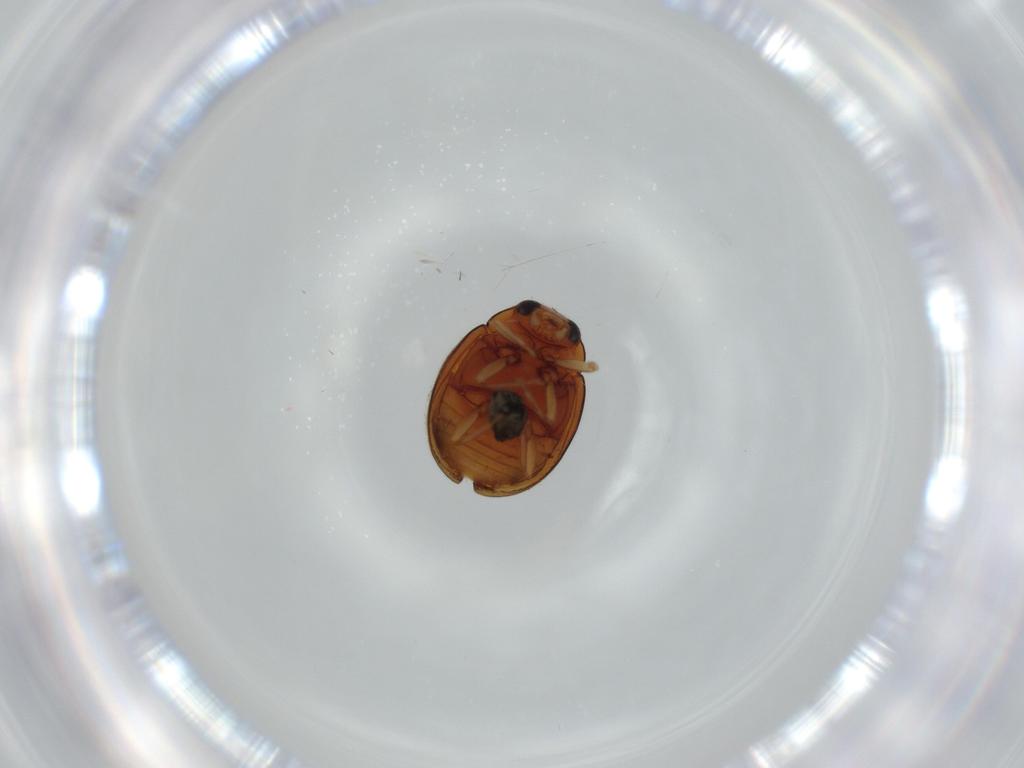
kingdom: Animalia
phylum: Arthropoda
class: Insecta
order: Coleoptera
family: Coccinellidae
